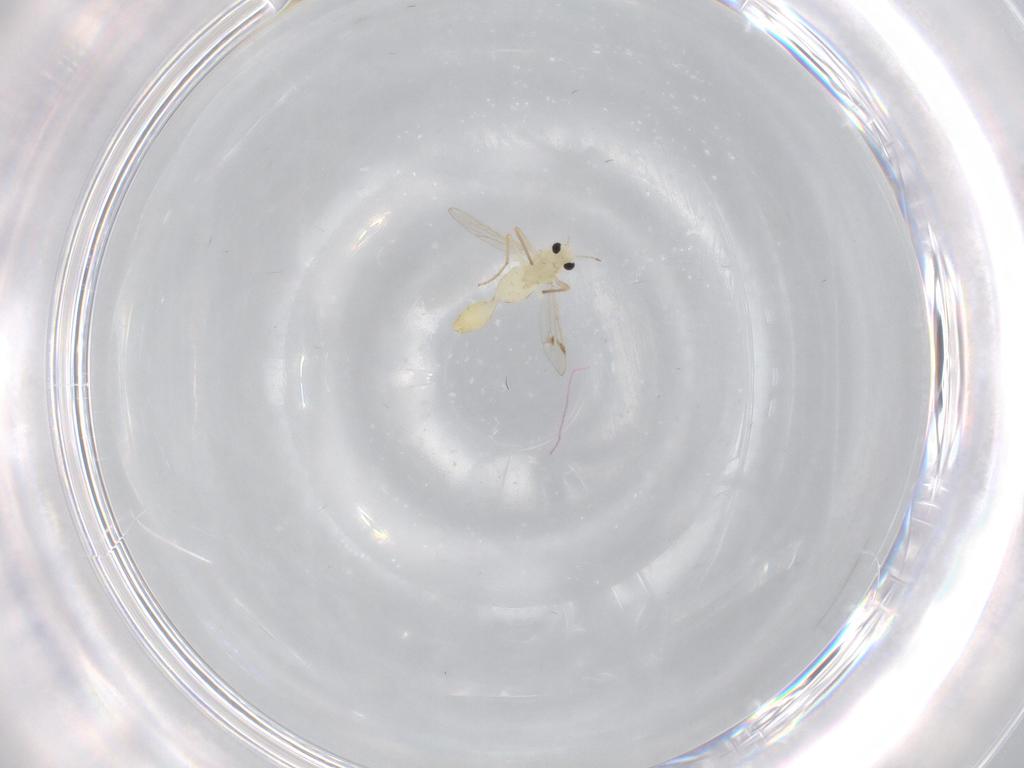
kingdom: Animalia
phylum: Arthropoda
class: Insecta
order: Diptera
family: Chironomidae
